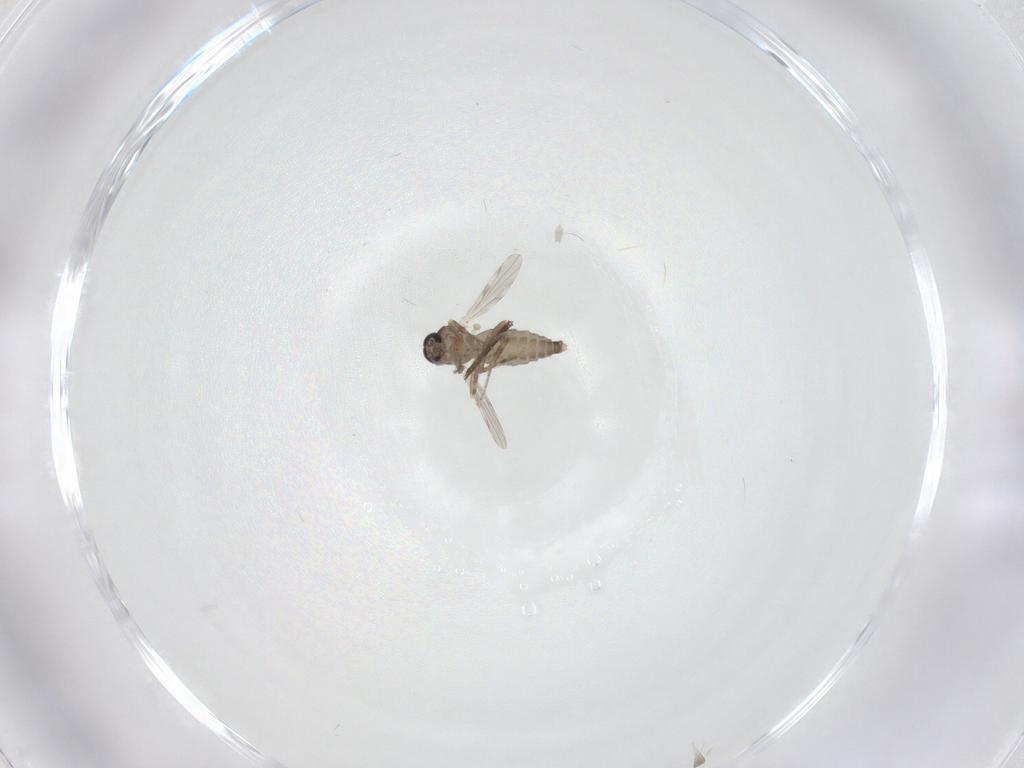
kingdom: Animalia
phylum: Arthropoda
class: Insecta
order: Diptera
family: Ceratopogonidae
